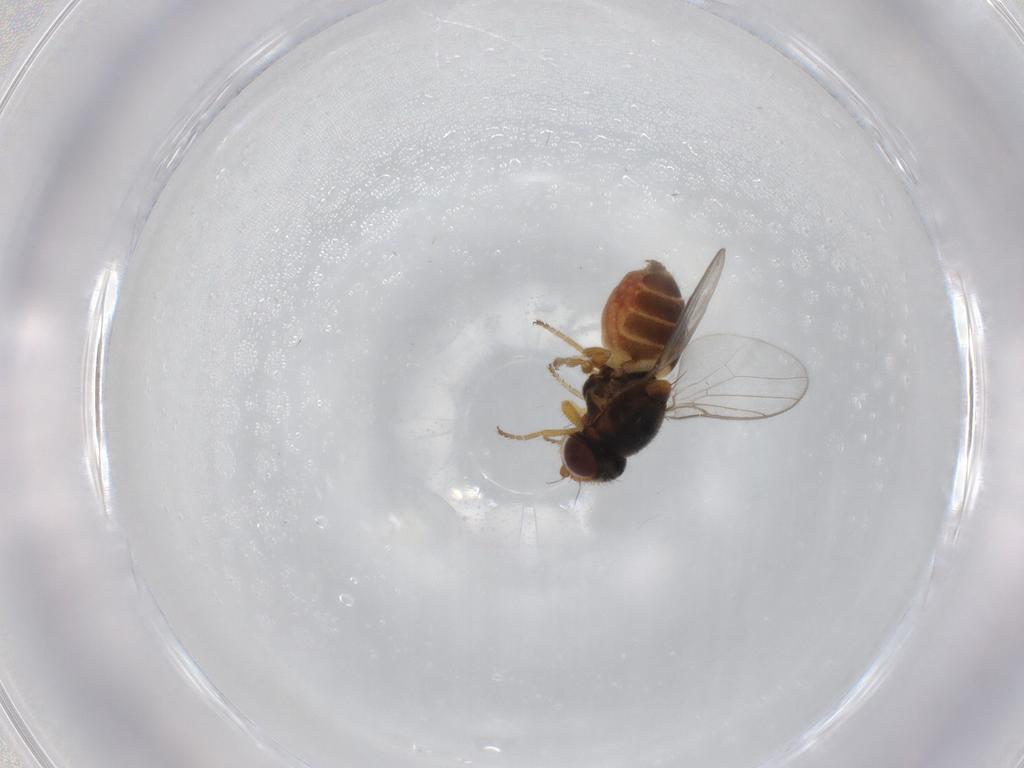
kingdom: Animalia
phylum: Arthropoda
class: Insecta
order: Diptera
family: Chloropidae
